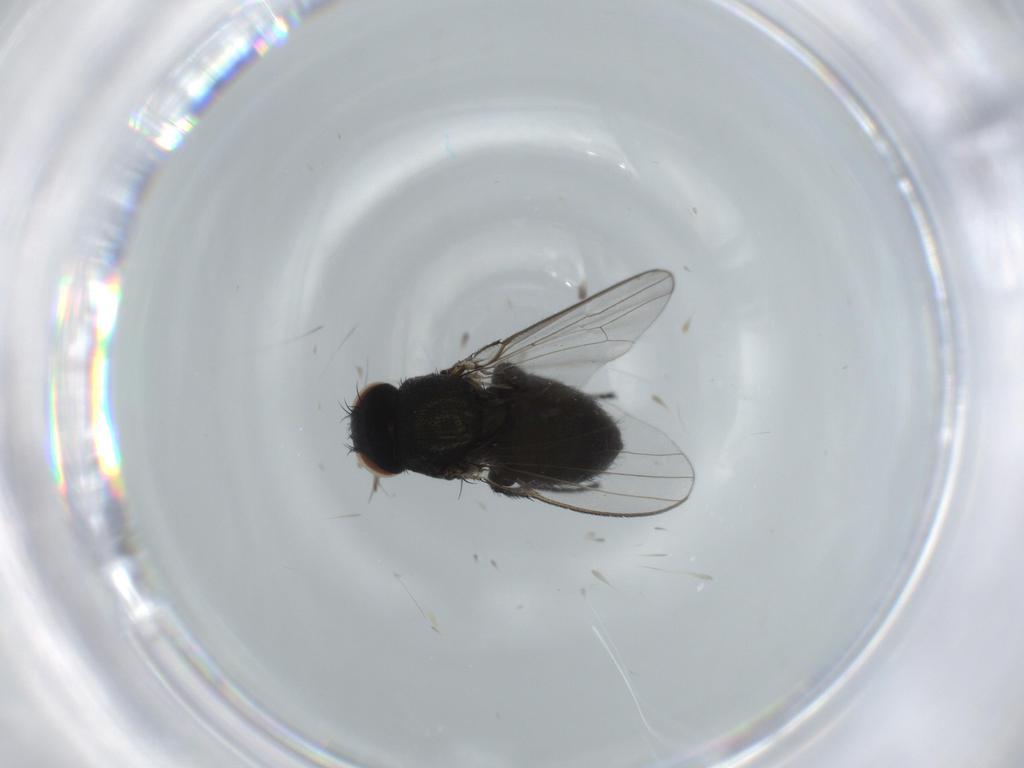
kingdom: Animalia
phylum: Arthropoda
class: Insecta
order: Diptera
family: Milichiidae
